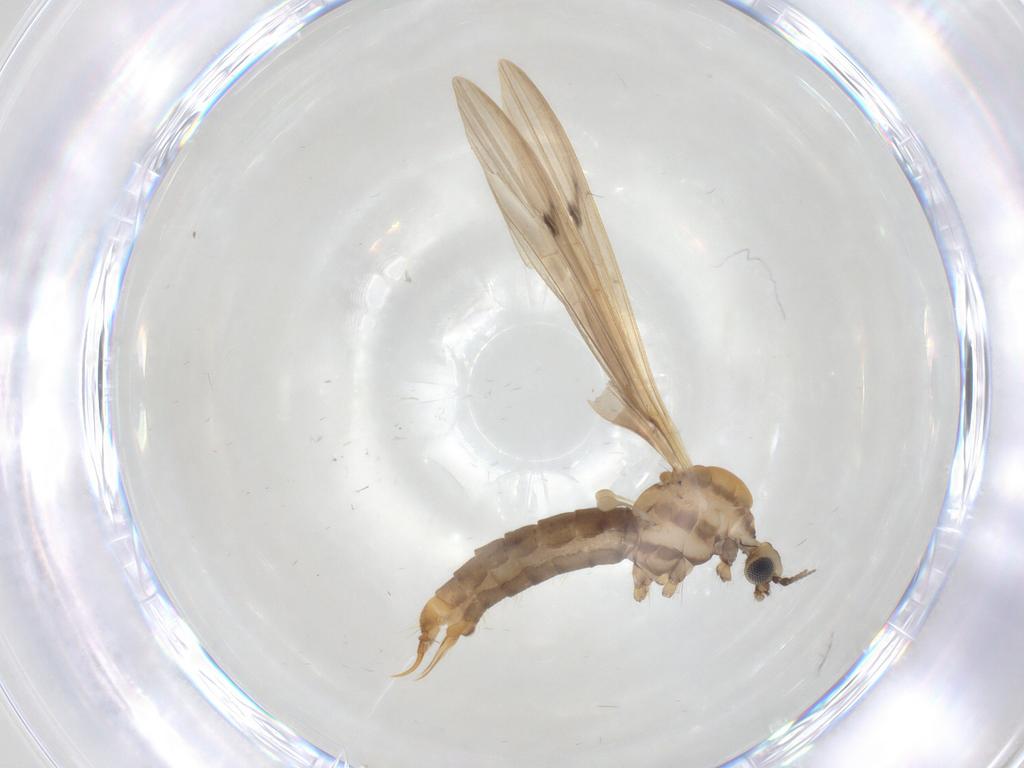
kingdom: Animalia
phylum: Arthropoda
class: Insecta
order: Diptera
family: Limoniidae
